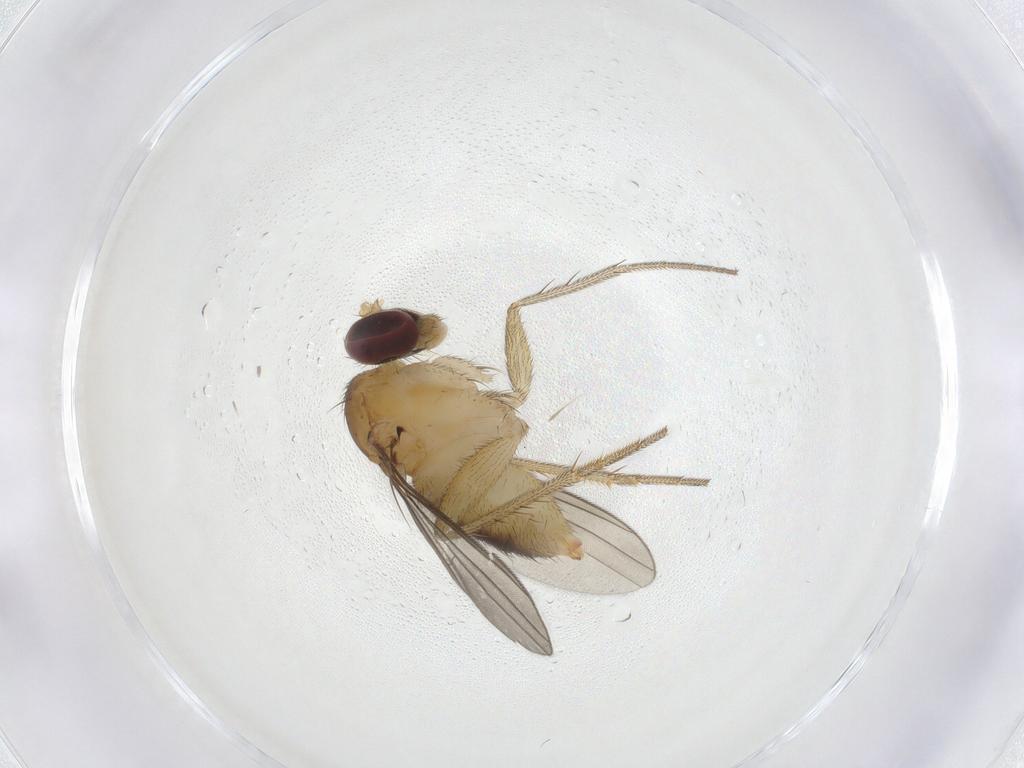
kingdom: Animalia
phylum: Arthropoda
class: Insecta
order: Diptera
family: Dolichopodidae
